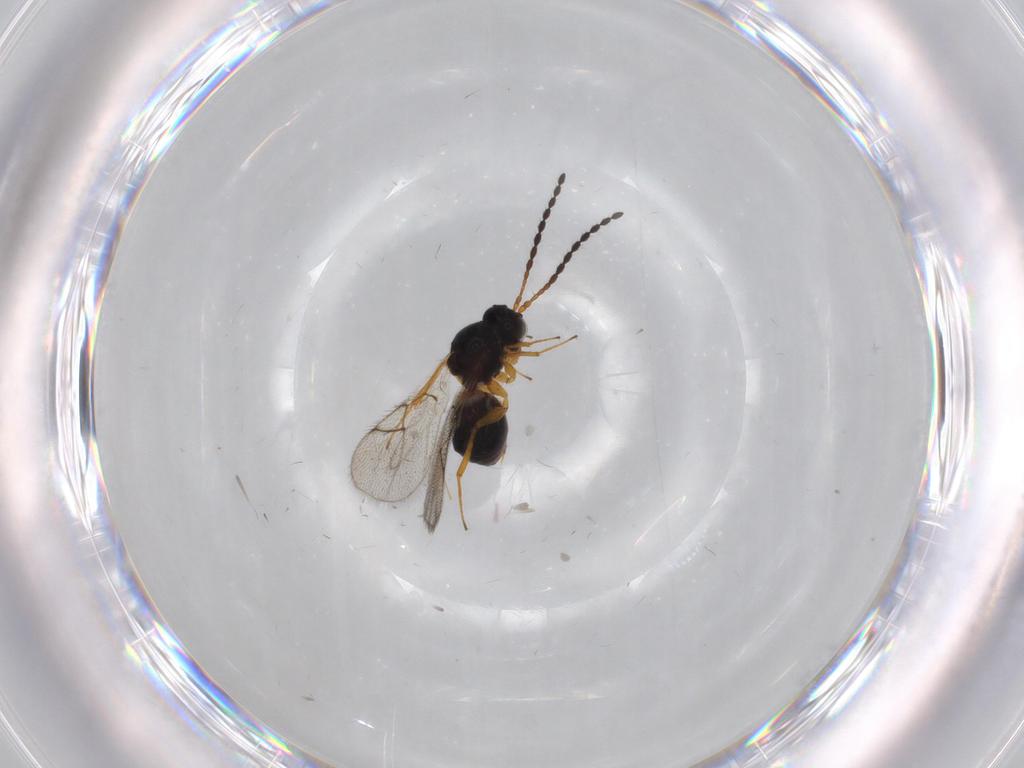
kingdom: Animalia
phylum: Arthropoda
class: Insecta
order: Hymenoptera
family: Figitidae
